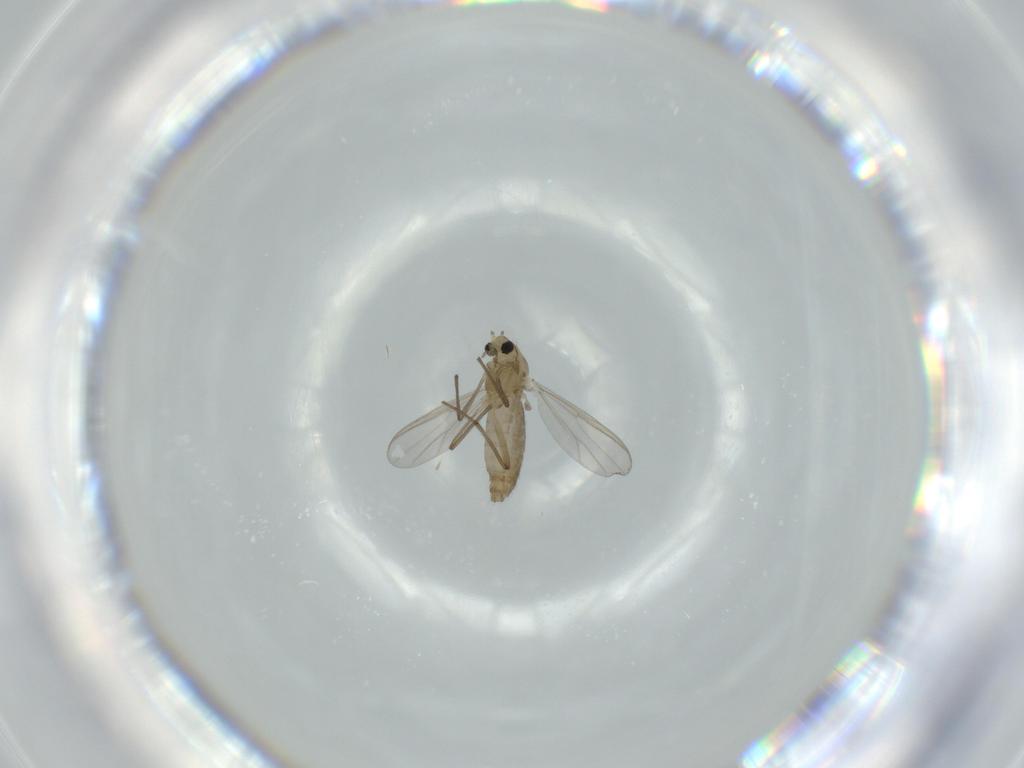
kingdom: Animalia
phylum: Arthropoda
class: Insecta
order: Diptera
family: Chironomidae
